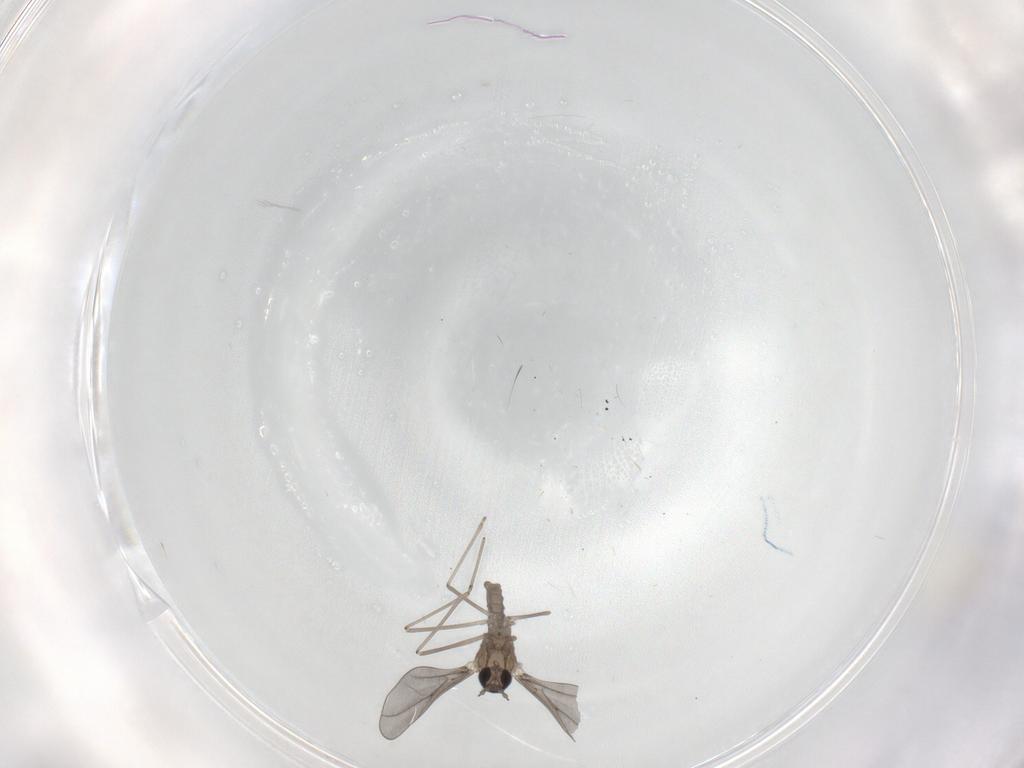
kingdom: Animalia
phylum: Arthropoda
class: Insecta
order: Diptera
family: Cecidomyiidae
